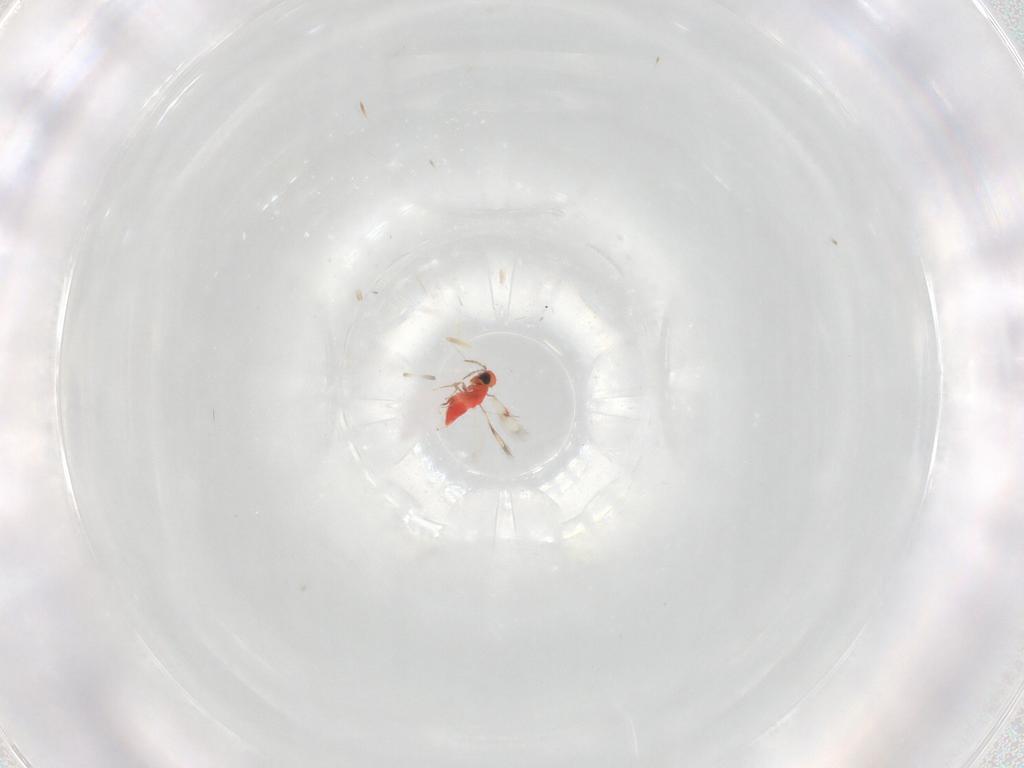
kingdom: Animalia
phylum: Arthropoda
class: Insecta
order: Hymenoptera
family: Trichogrammatidae
